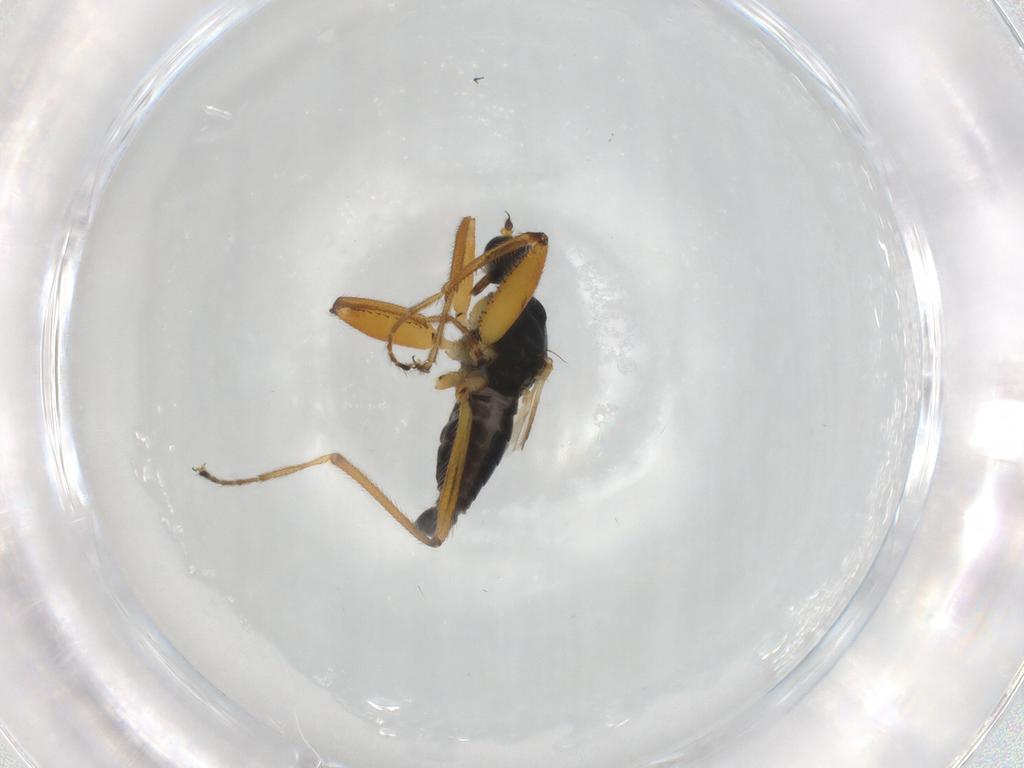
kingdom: Animalia
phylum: Arthropoda
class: Insecta
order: Diptera
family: Hybotidae
